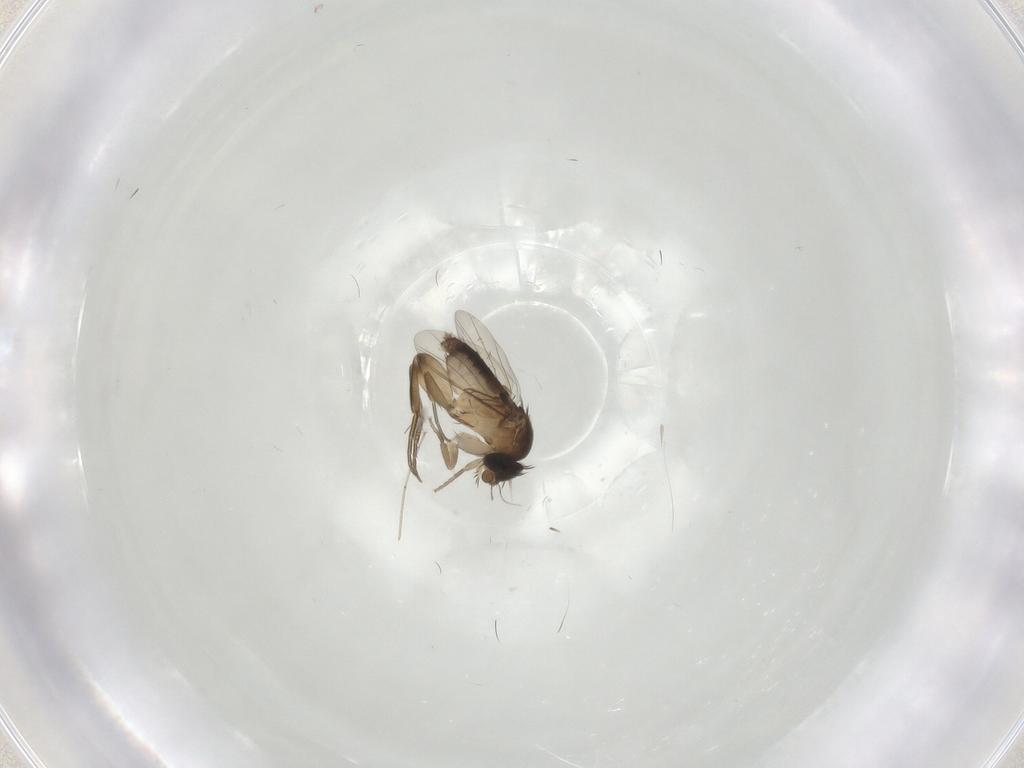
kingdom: Animalia
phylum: Arthropoda
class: Insecta
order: Diptera
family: Phoridae
